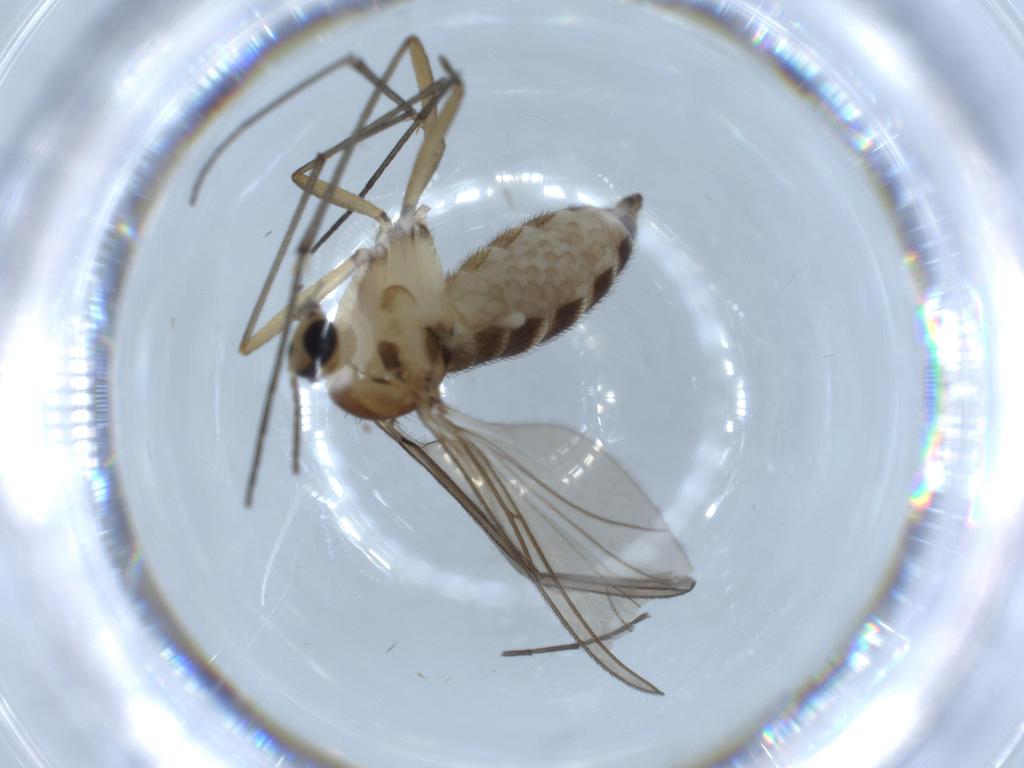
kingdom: Animalia
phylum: Arthropoda
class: Insecta
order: Diptera
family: Sciaridae
